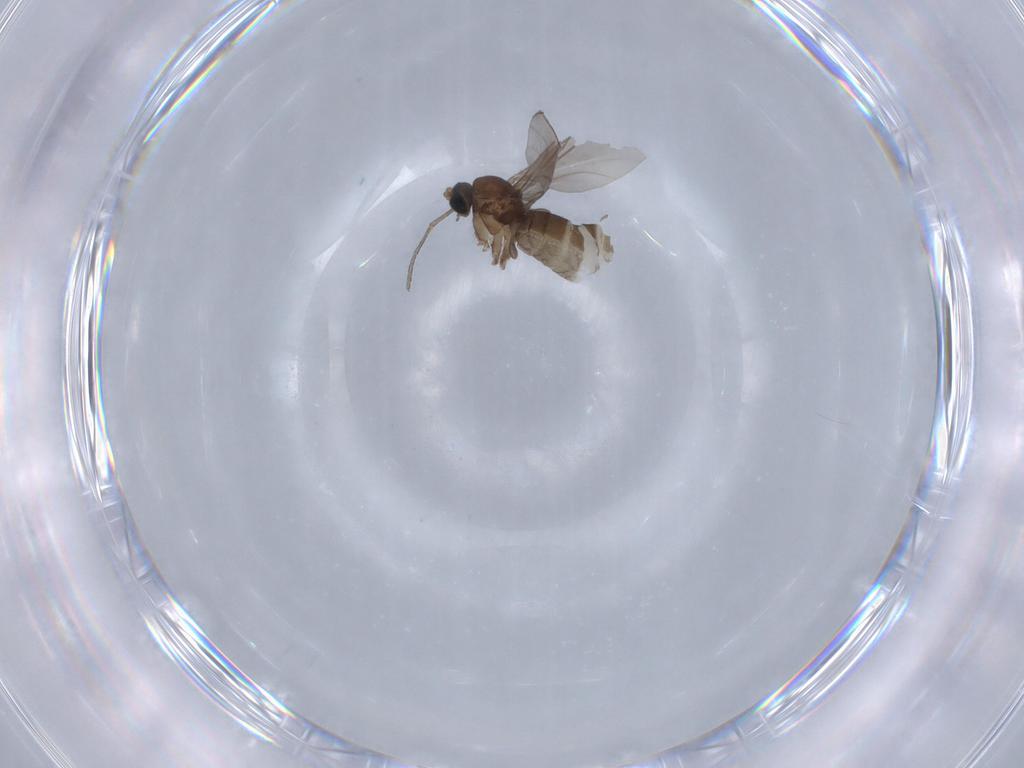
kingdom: Animalia
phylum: Arthropoda
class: Insecta
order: Diptera
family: Sciaridae
